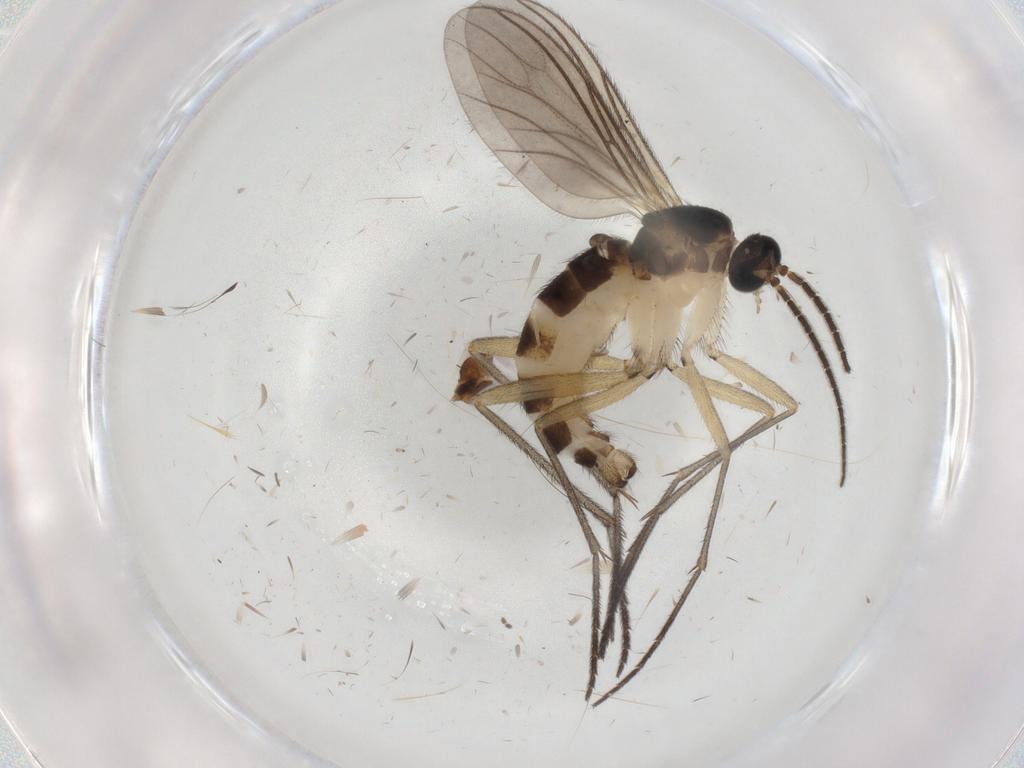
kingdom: Animalia
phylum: Arthropoda
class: Insecta
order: Diptera
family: Sciaridae
